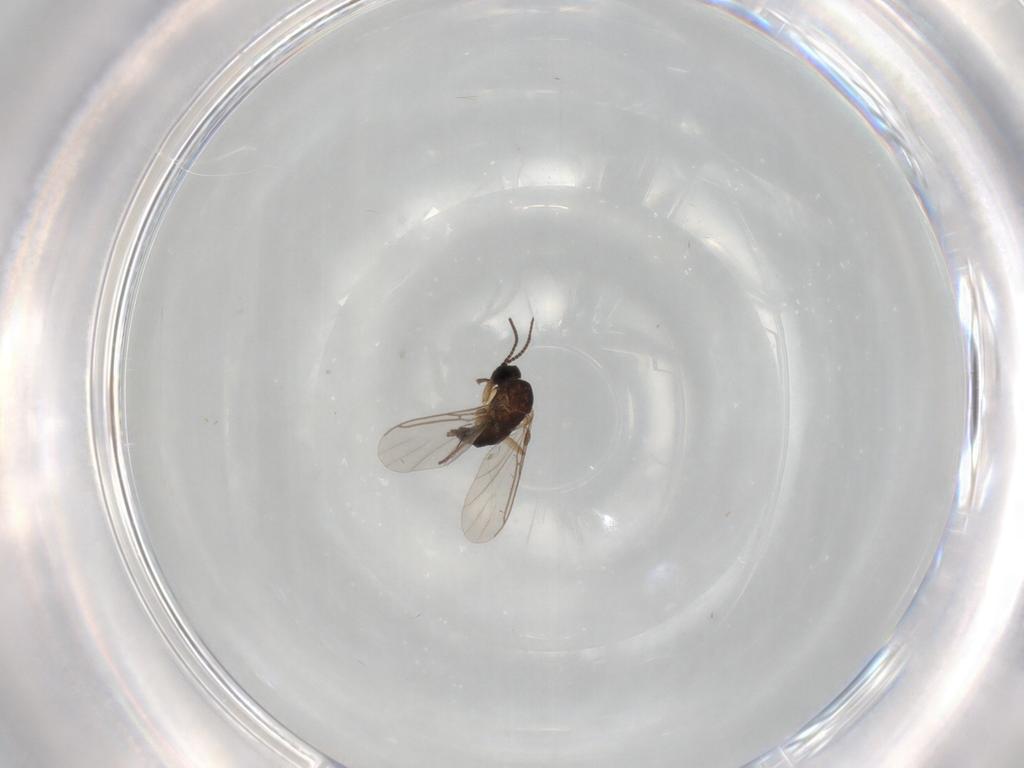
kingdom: Animalia
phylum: Arthropoda
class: Insecta
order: Diptera
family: Sciaridae
